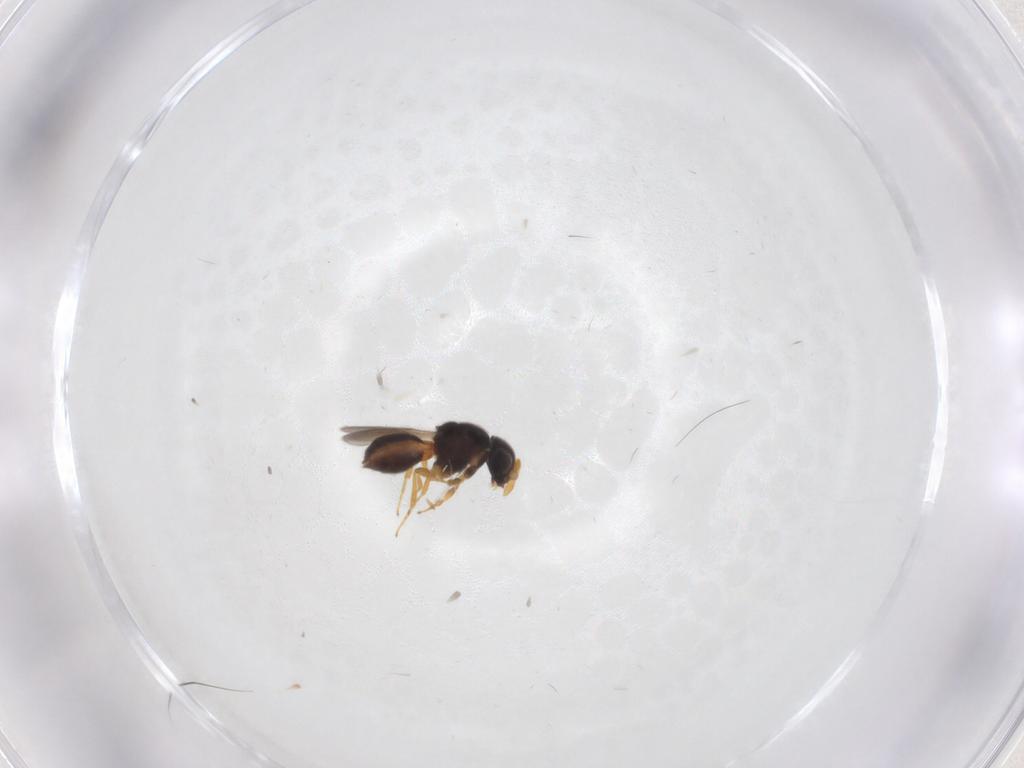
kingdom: Animalia
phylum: Arthropoda
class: Insecta
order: Hymenoptera
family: Scelionidae
